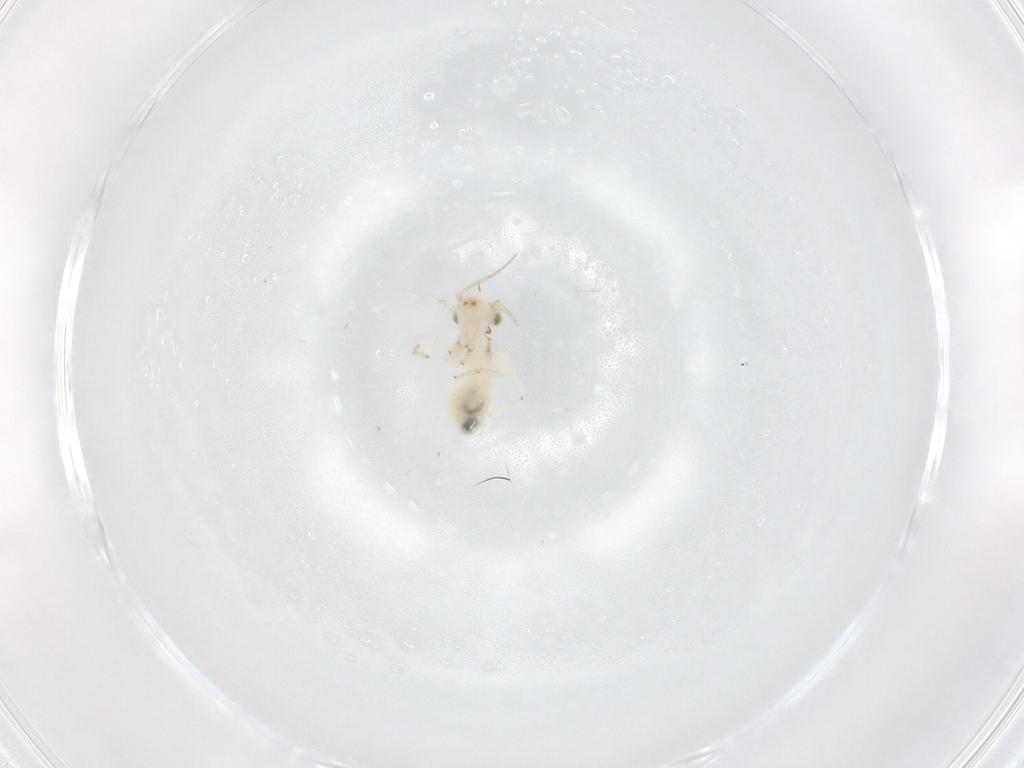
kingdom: Animalia
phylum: Arthropoda
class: Insecta
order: Psocodea
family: Lepidopsocidae
